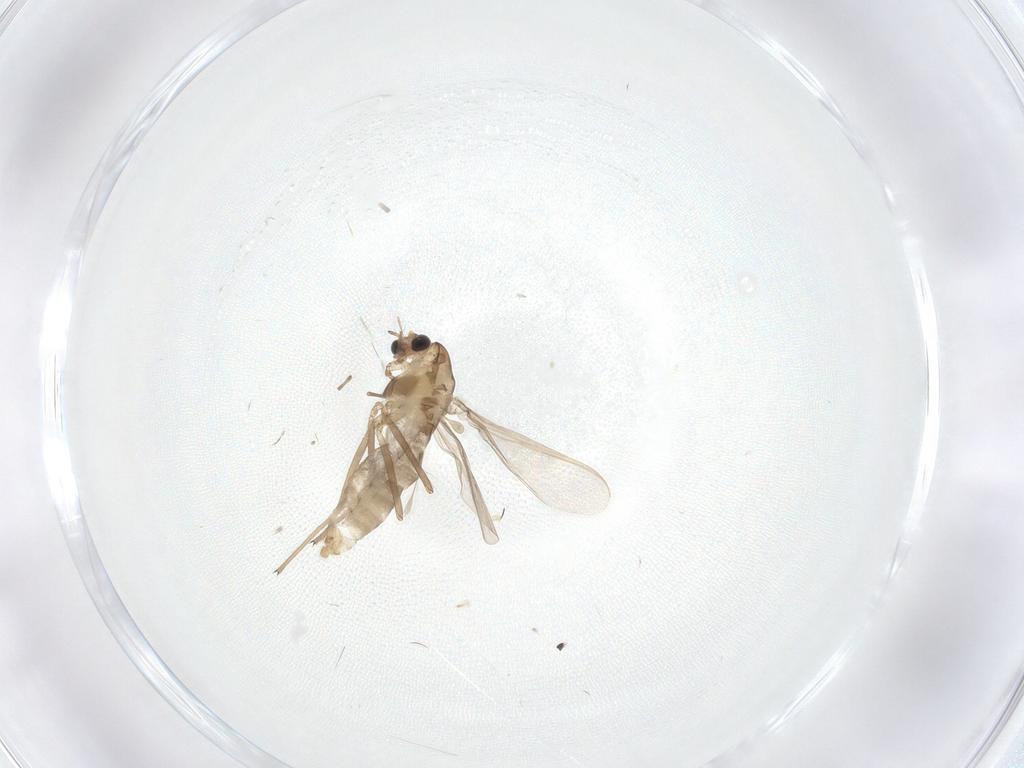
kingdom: Animalia
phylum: Arthropoda
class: Insecta
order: Diptera
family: Chironomidae
